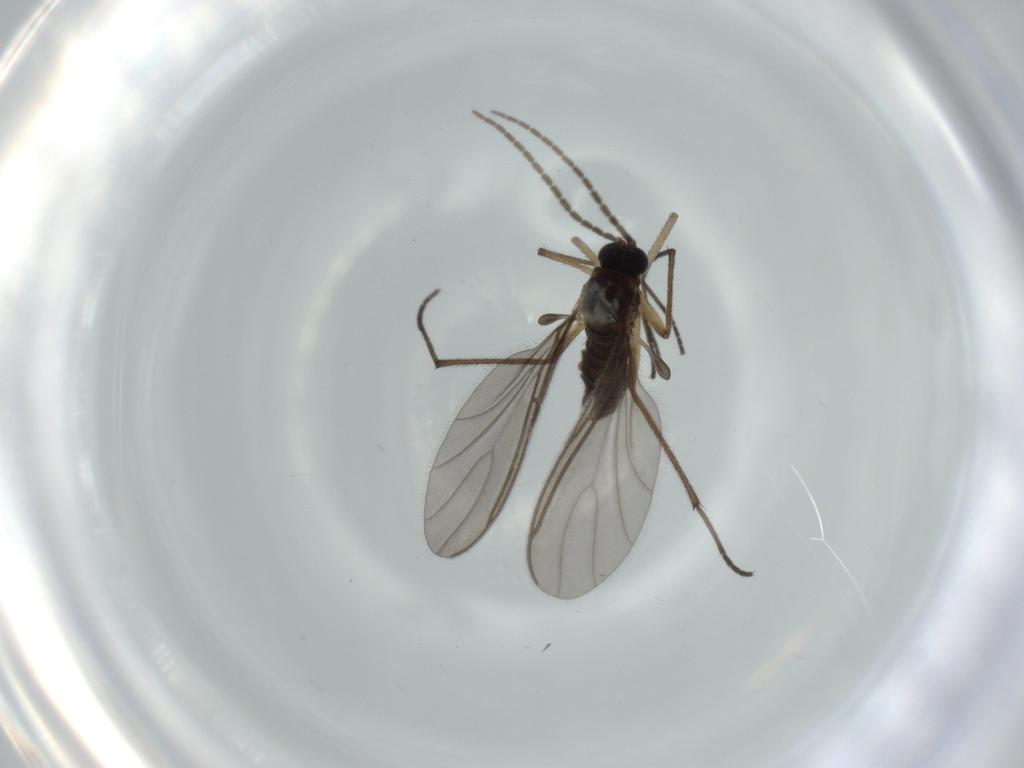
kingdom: Animalia
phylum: Arthropoda
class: Insecta
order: Diptera
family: Sciaridae
